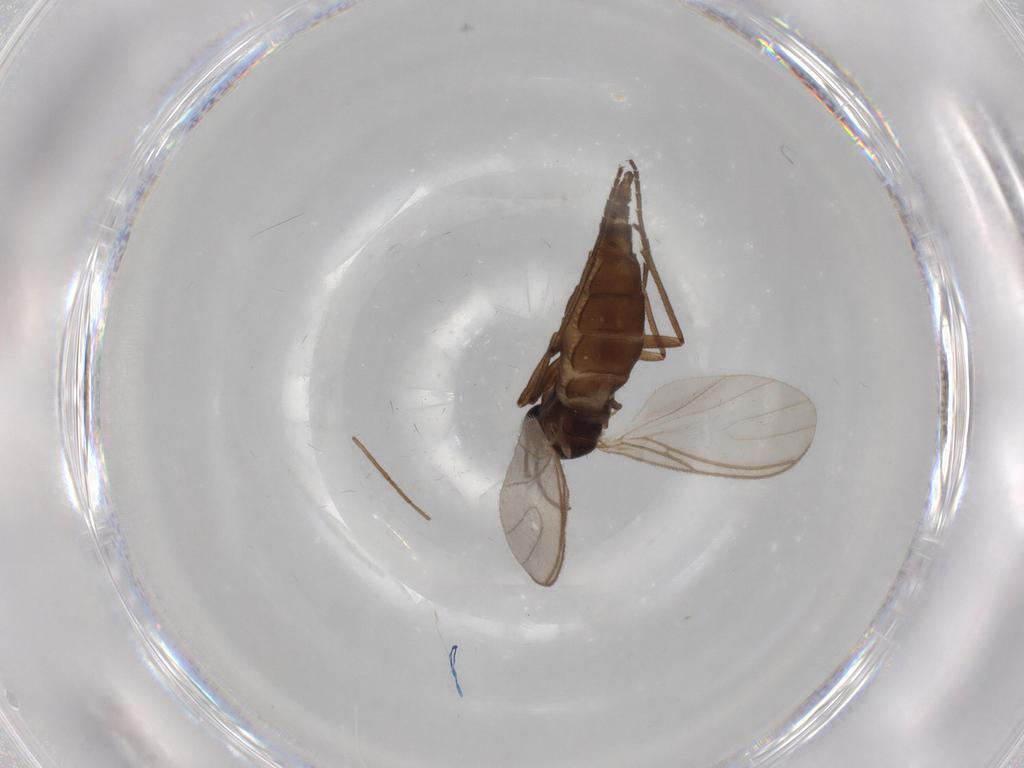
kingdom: Animalia
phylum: Arthropoda
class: Insecta
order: Diptera
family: Sciaridae
